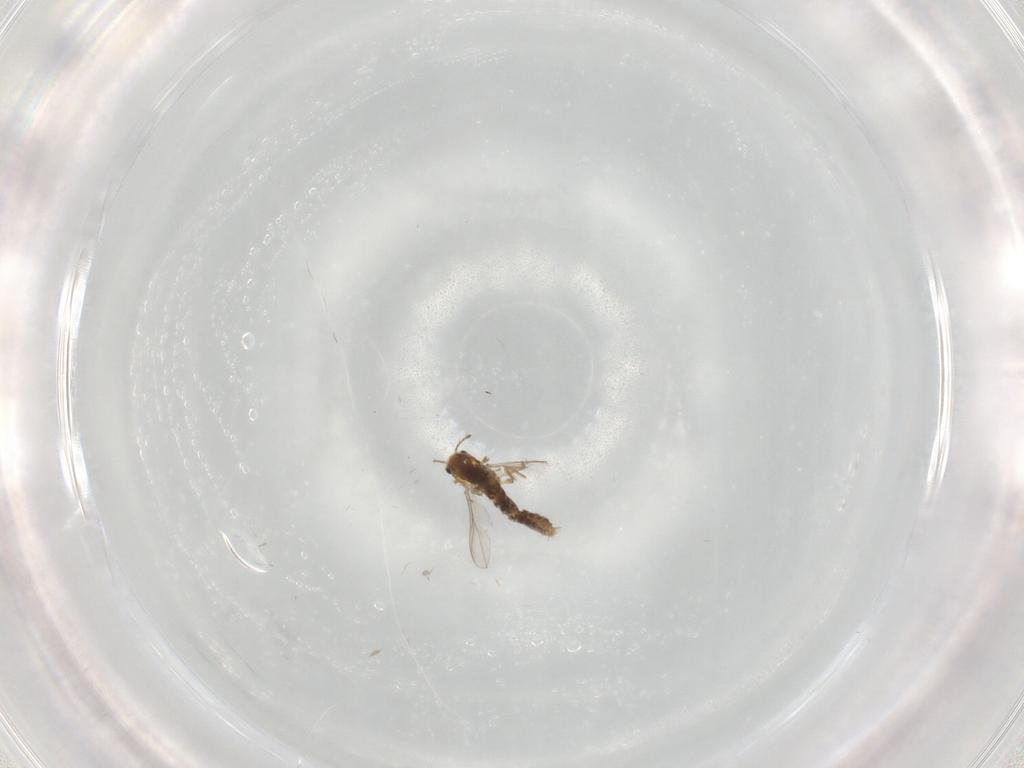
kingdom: Animalia
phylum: Arthropoda
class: Insecta
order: Diptera
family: Chironomidae
